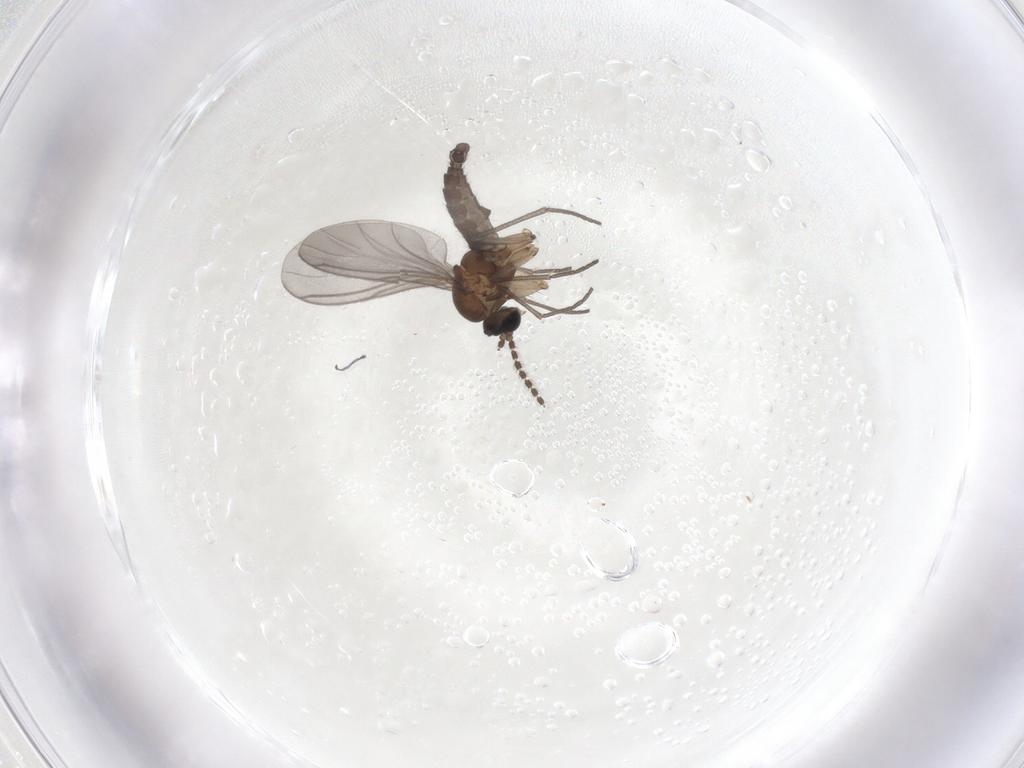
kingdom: Animalia
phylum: Arthropoda
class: Insecta
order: Diptera
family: Sciaridae
